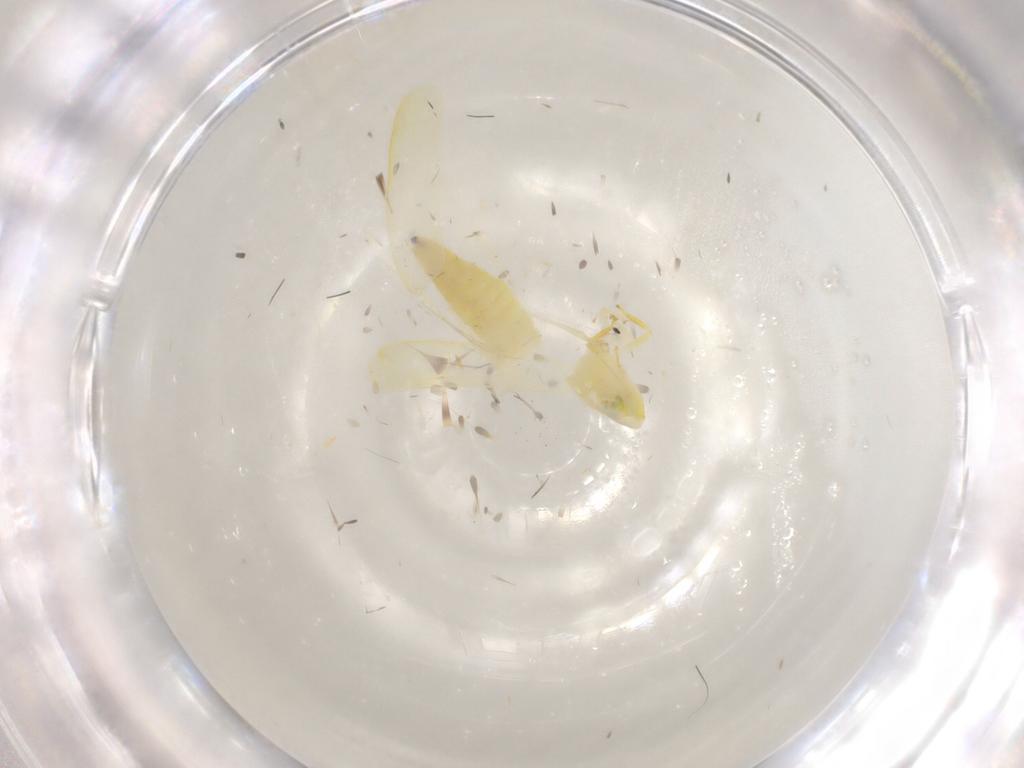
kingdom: Animalia
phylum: Arthropoda
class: Insecta
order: Hemiptera
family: Cicadellidae
